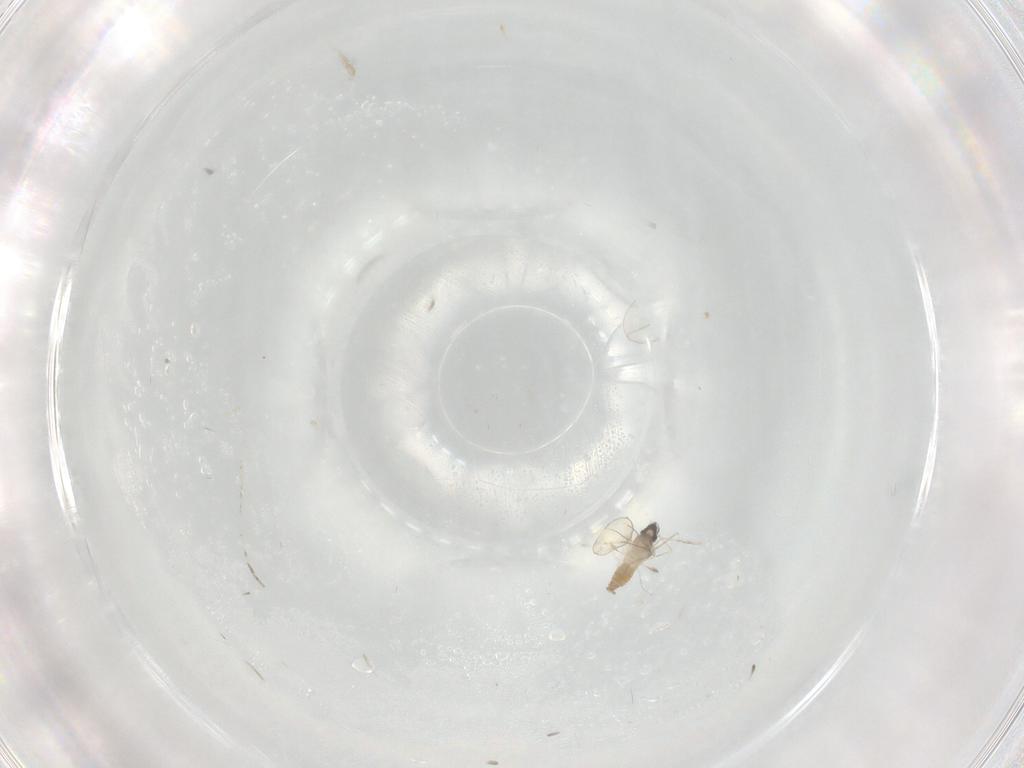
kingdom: Animalia
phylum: Arthropoda
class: Insecta
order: Diptera
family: Cecidomyiidae
